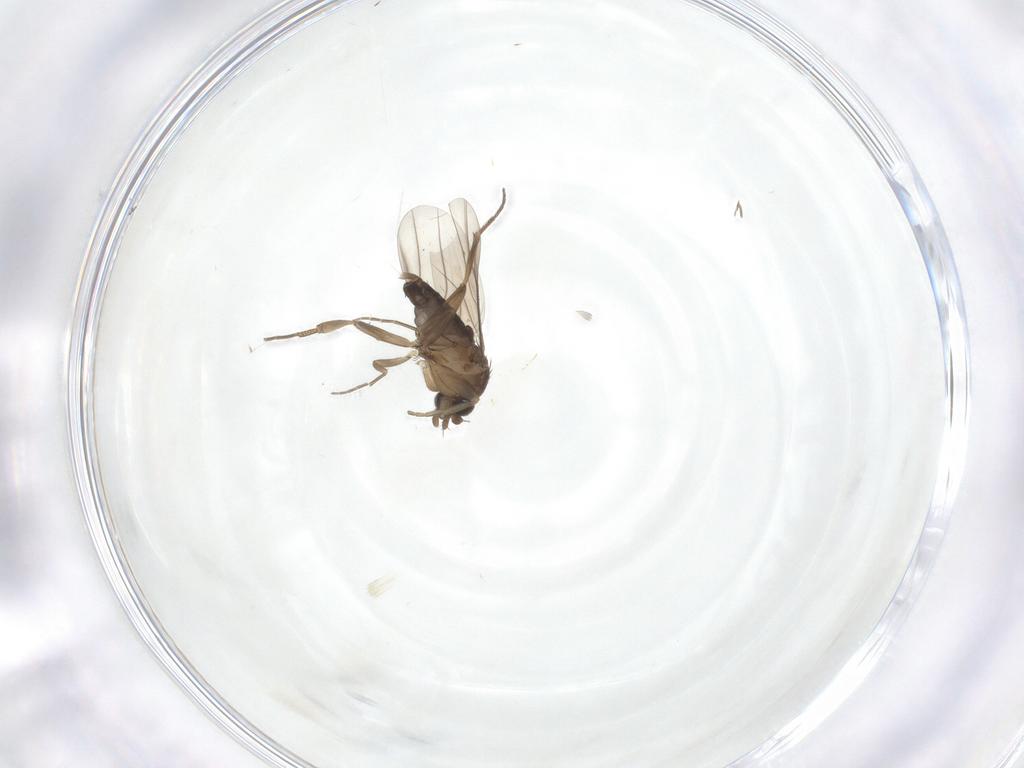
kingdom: Animalia
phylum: Arthropoda
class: Insecta
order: Diptera
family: Phoridae
